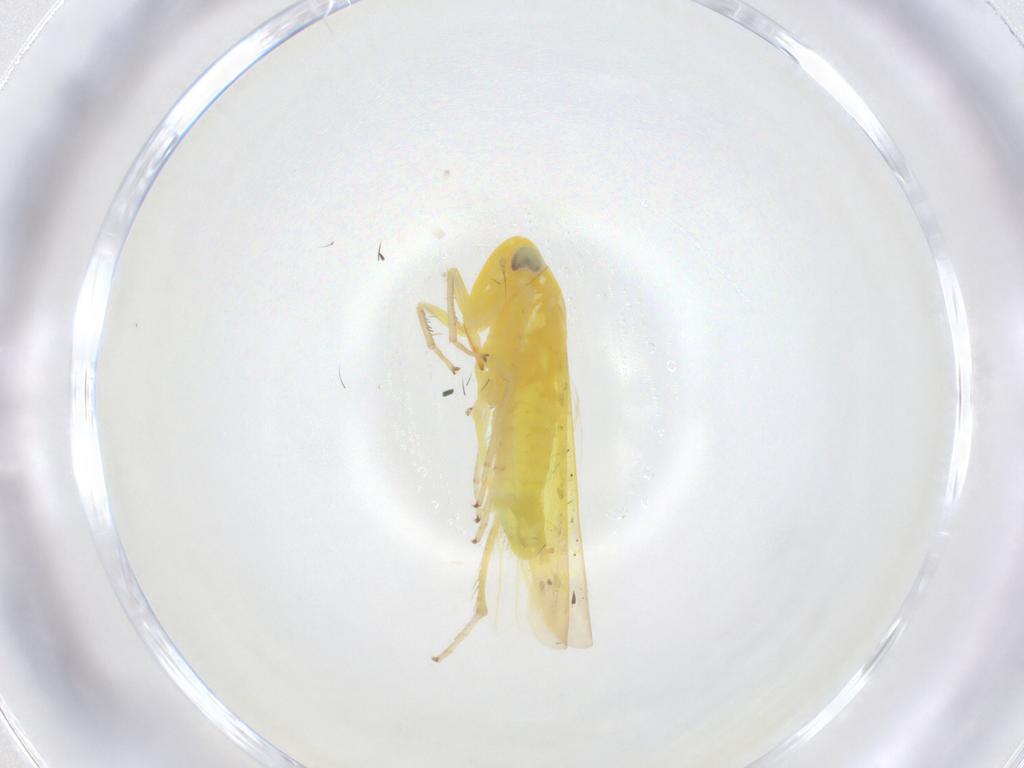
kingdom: Animalia
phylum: Arthropoda
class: Insecta
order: Hemiptera
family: Cicadellidae
